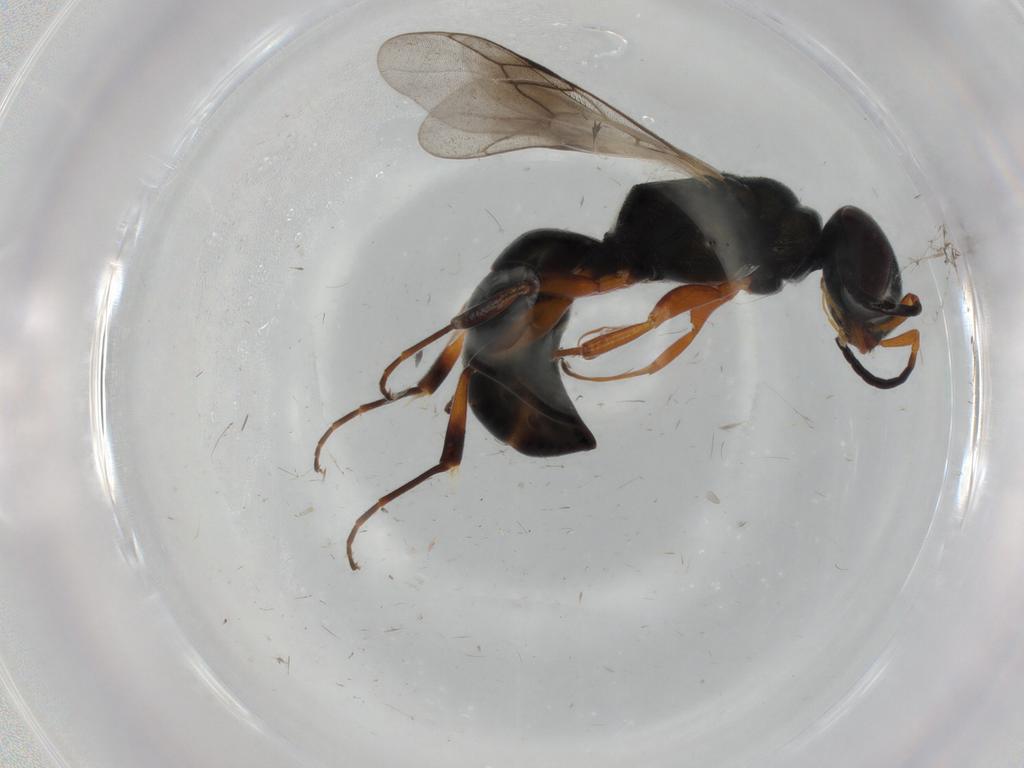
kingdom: Animalia
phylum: Arthropoda
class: Insecta
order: Hymenoptera
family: Crabronidae
